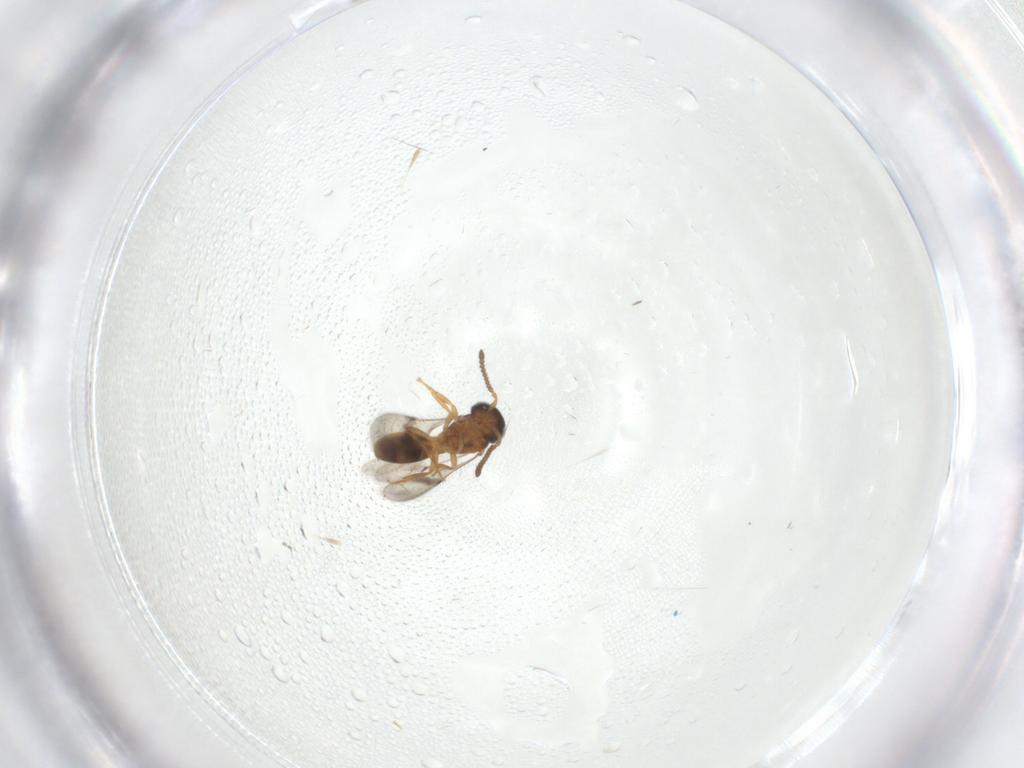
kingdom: Animalia
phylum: Arthropoda
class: Insecta
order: Hymenoptera
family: Scelionidae
